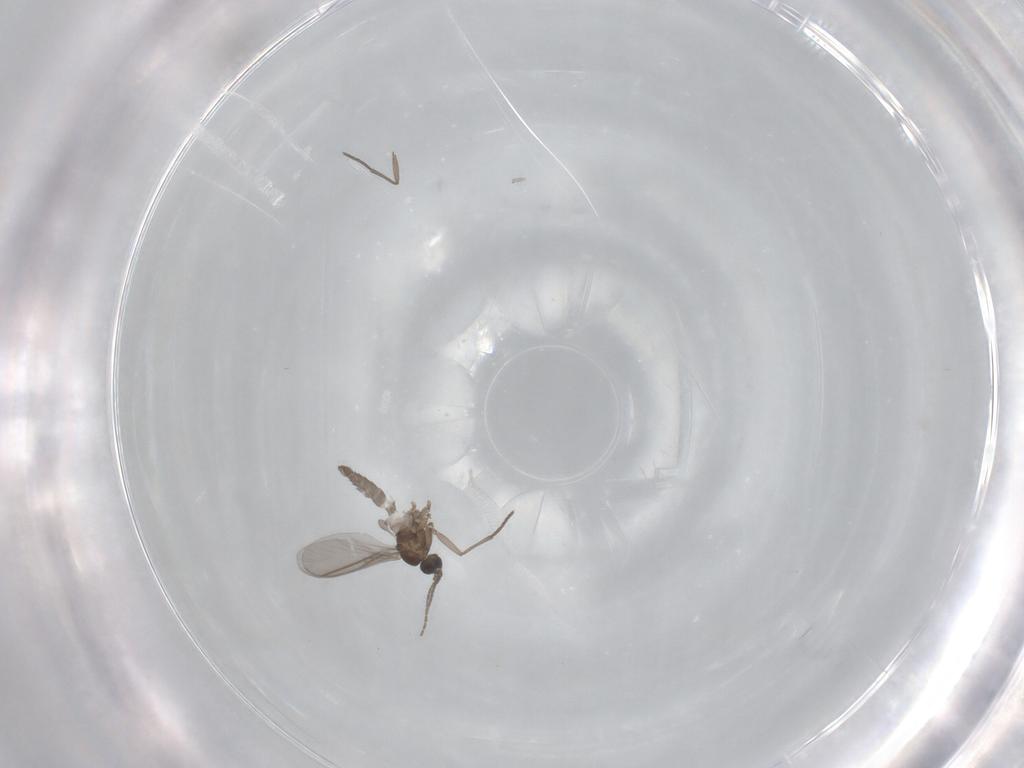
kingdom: Animalia
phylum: Arthropoda
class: Insecta
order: Diptera
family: Sciaridae
